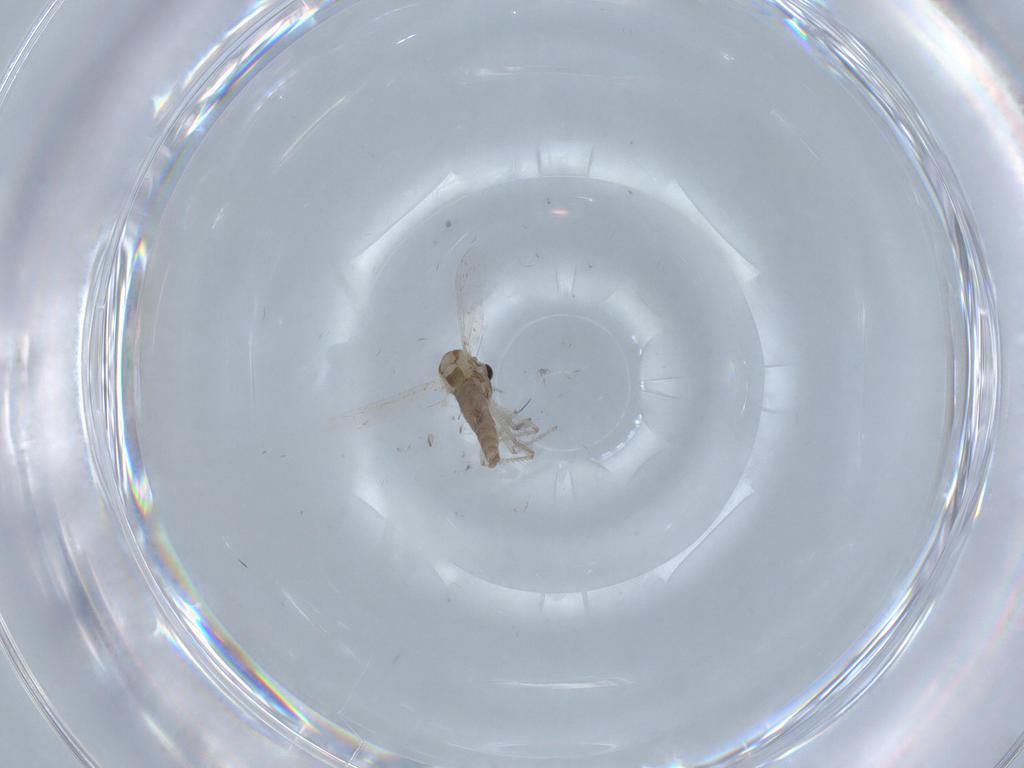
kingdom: Animalia
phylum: Arthropoda
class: Insecta
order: Diptera
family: Chironomidae
